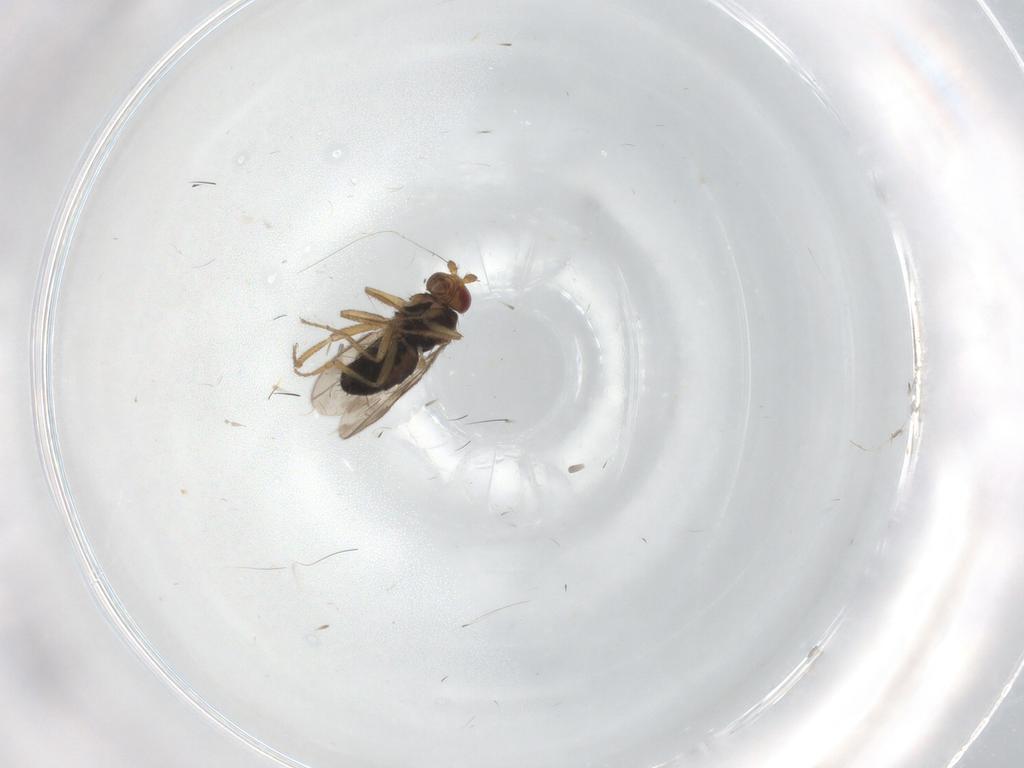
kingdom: Animalia
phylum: Arthropoda
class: Insecta
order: Diptera
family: Sphaeroceridae
